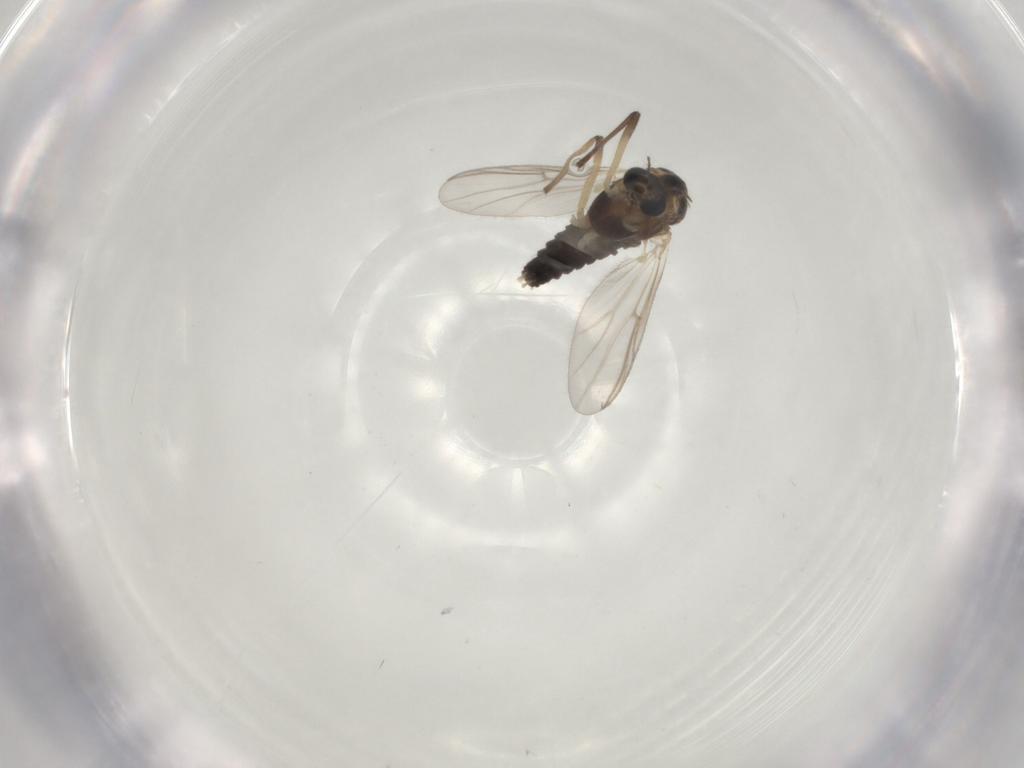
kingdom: Animalia
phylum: Arthropoda
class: Insecta
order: Diptera
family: Chironomidae
